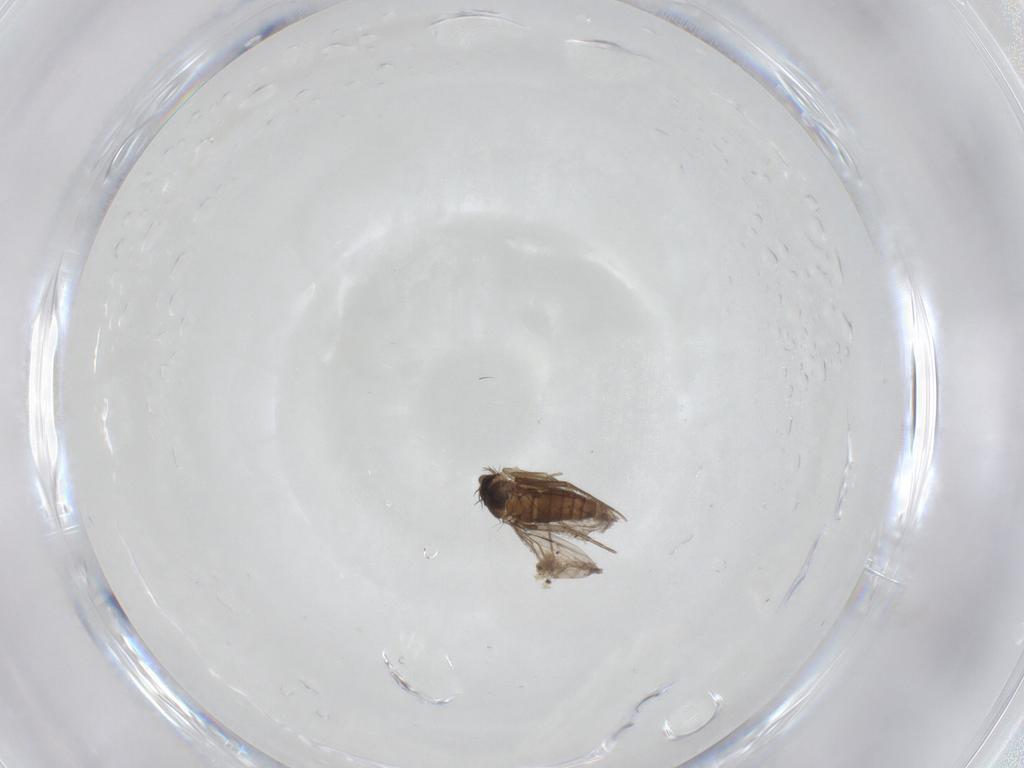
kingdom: Animalia
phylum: Arthropoda
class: Insecta
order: Diptera
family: Phoridae
